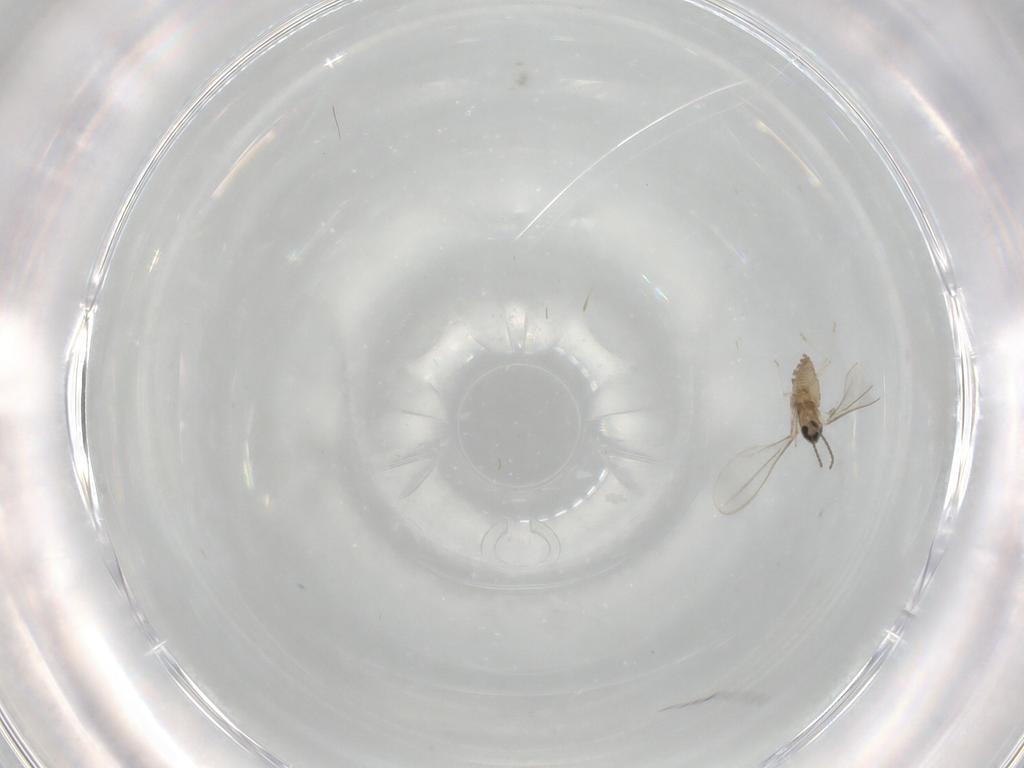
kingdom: Animalia
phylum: Arthropoda
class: Insecta
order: Diptera
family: Cecidomyiidae
